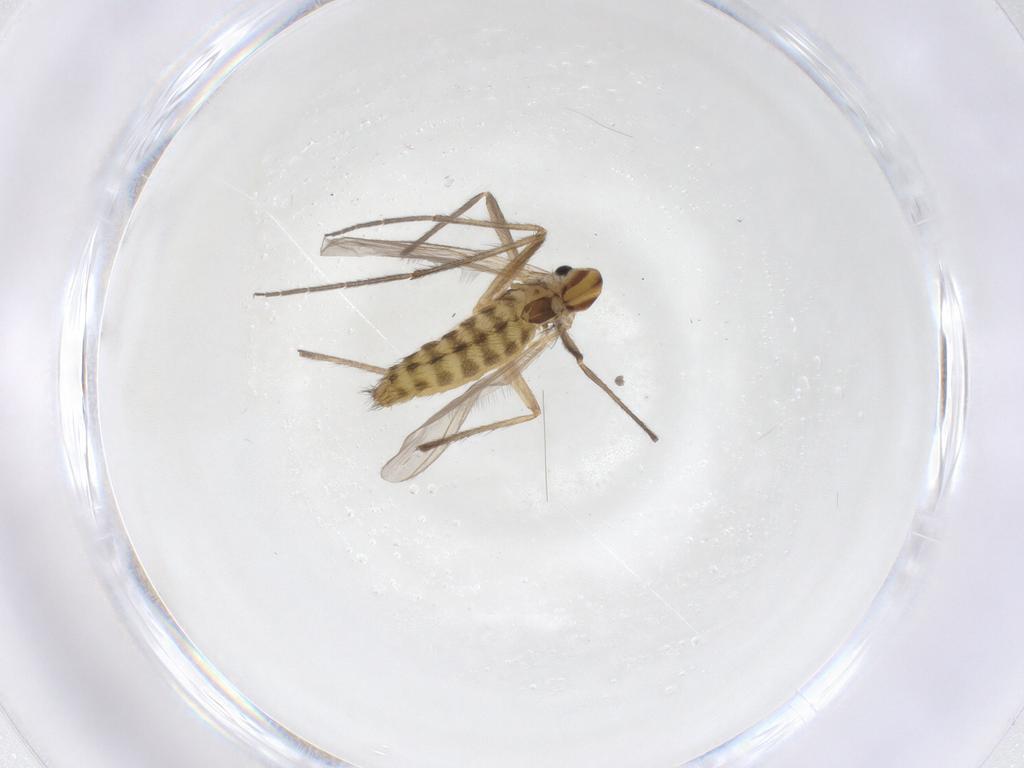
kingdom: Animalia
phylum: Arthropoda
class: Insecta
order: Diptera
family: Chironomidae
